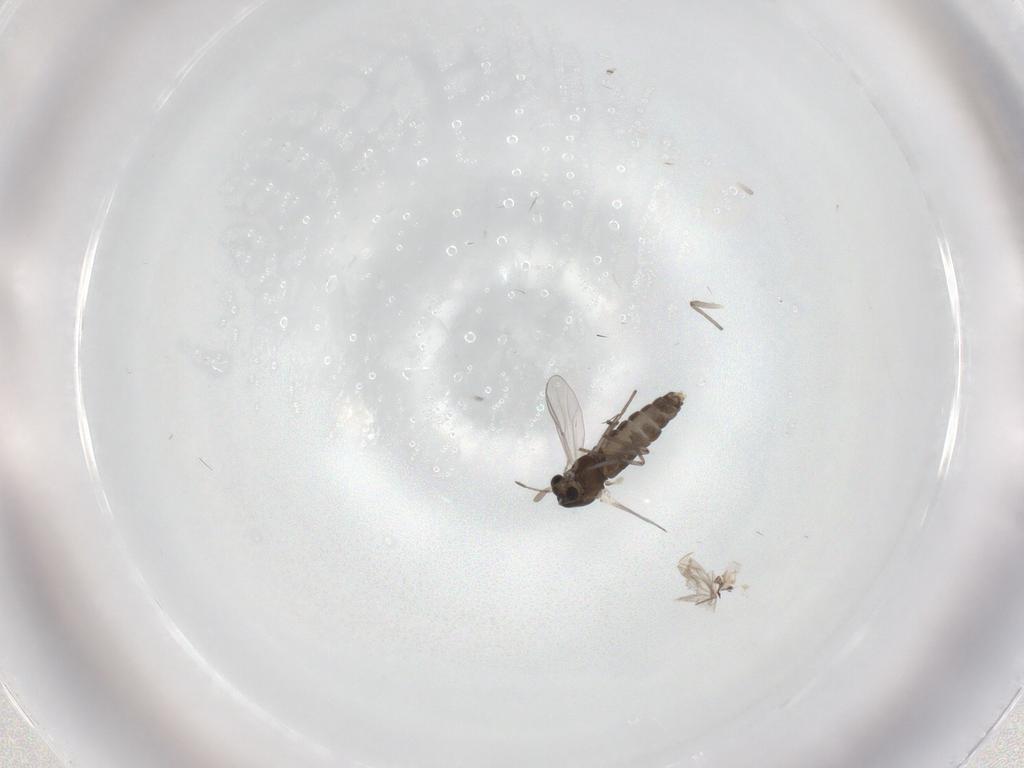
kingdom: Animalia
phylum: Arthropoda
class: Insecta
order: Diptera
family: Chironomidae
